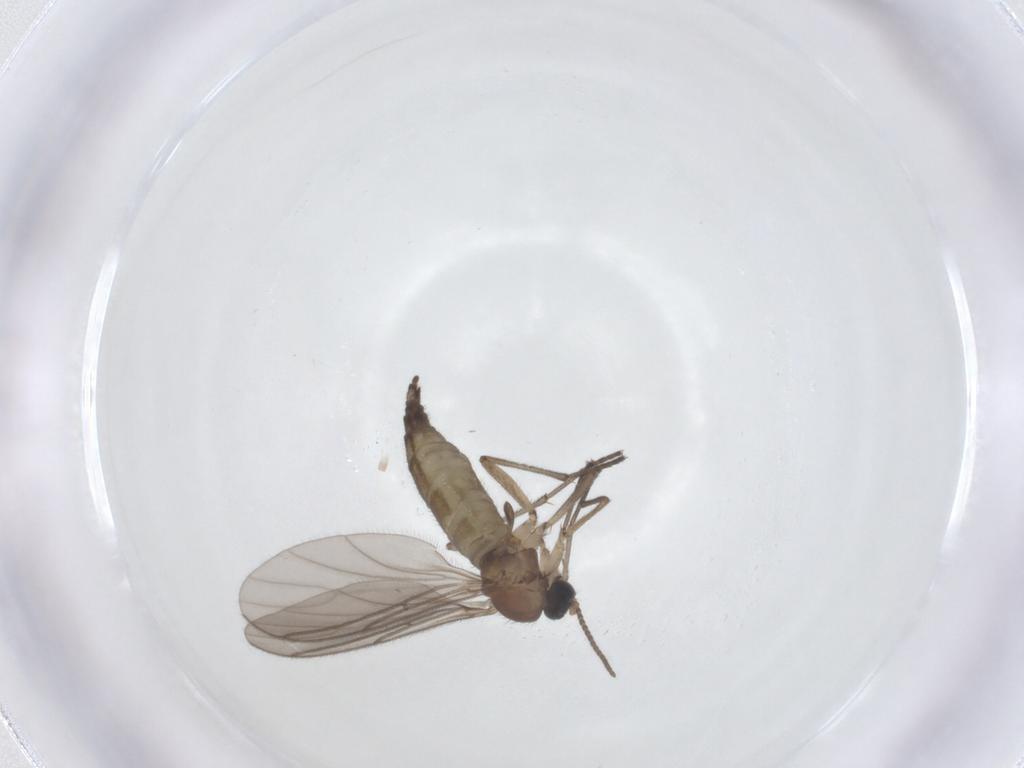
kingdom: Animalia
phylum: Arthropoda
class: Insecta
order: Diptera
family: Sciaridae
